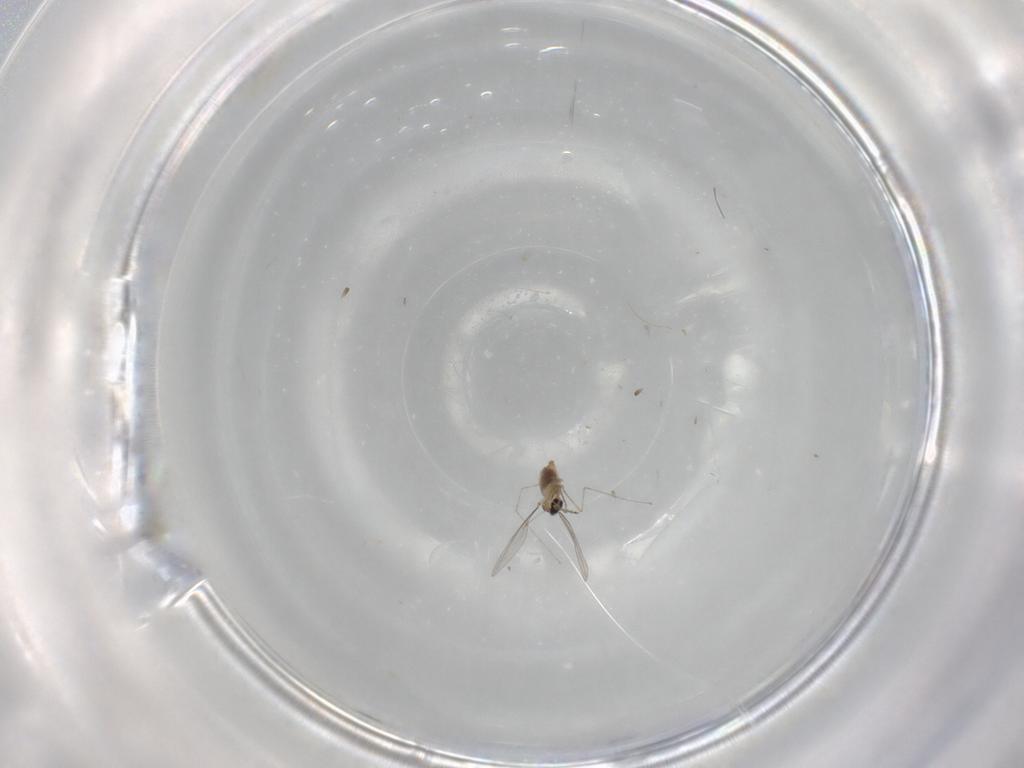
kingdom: Animalia
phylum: Arthropoda
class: Insecta
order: Diptera
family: Cecidomyiidae
